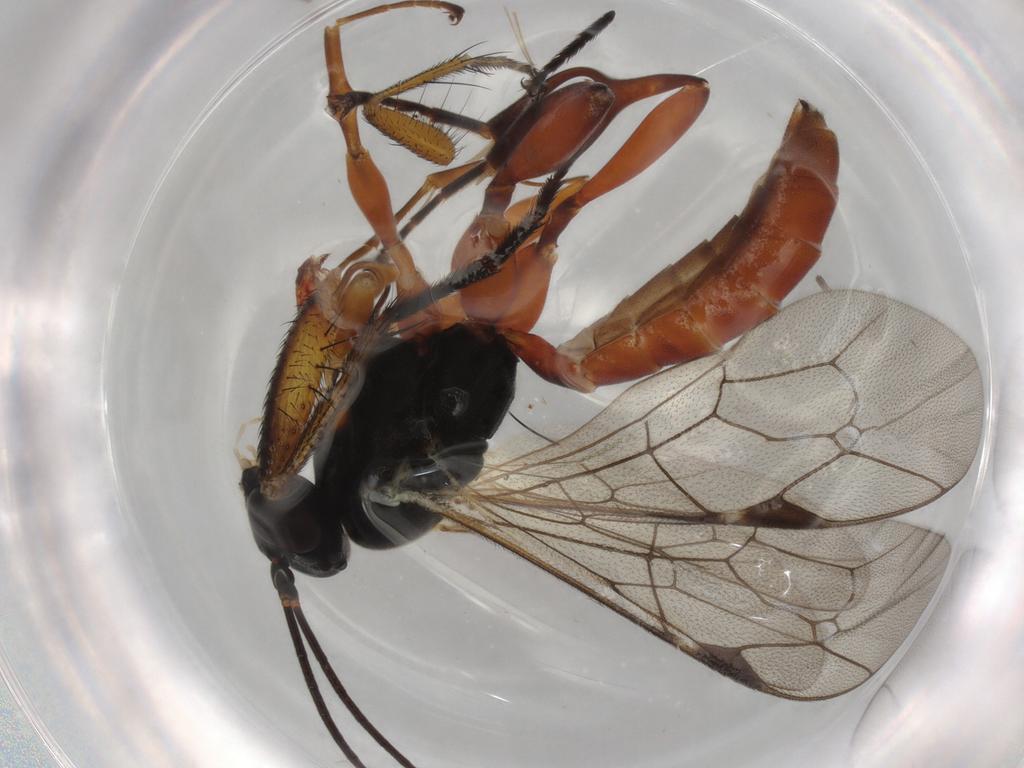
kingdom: Animalia
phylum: Arthropoda
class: Insecta
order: Hymenoptera
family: Ichneumonidae
